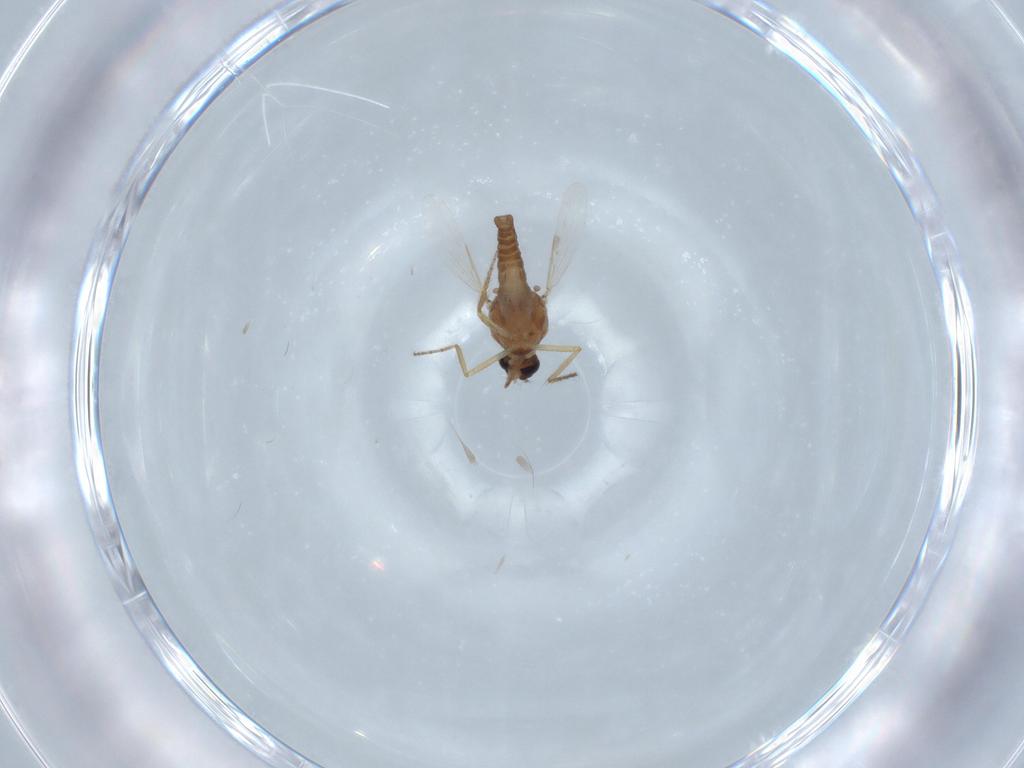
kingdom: Animalia
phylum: Arthropoda
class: Insecta
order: Diptera
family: Ceratopogonidae
